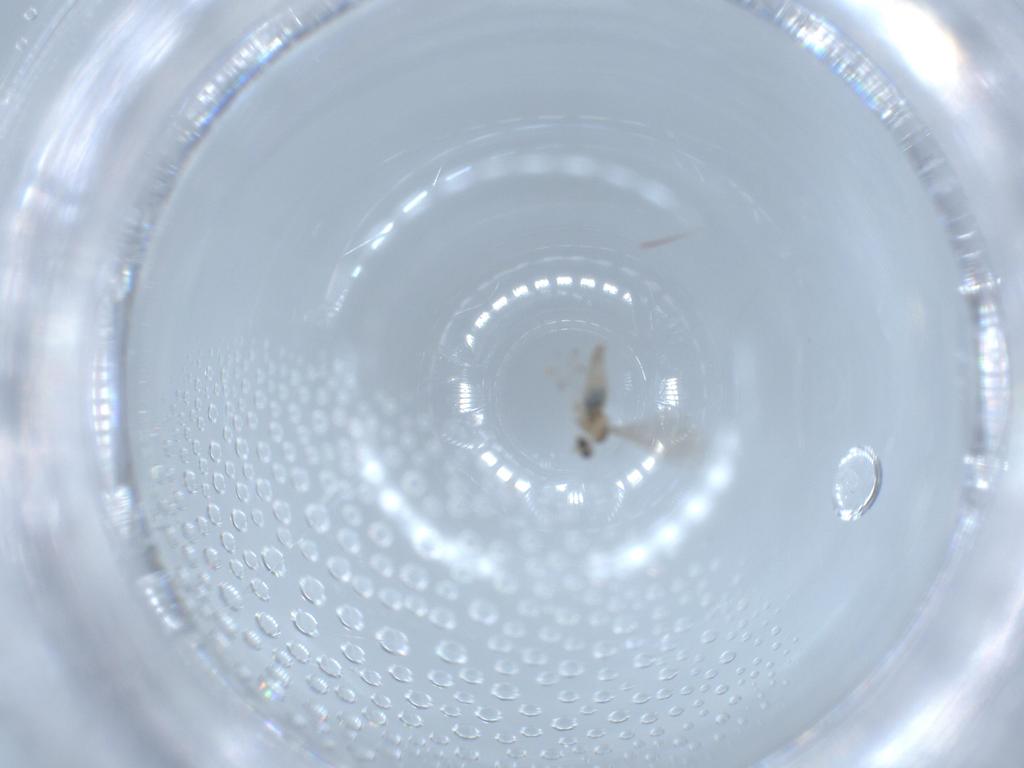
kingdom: Animalia
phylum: Arthropoda
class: Insecta
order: Diptera
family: Cecidomyiidae
